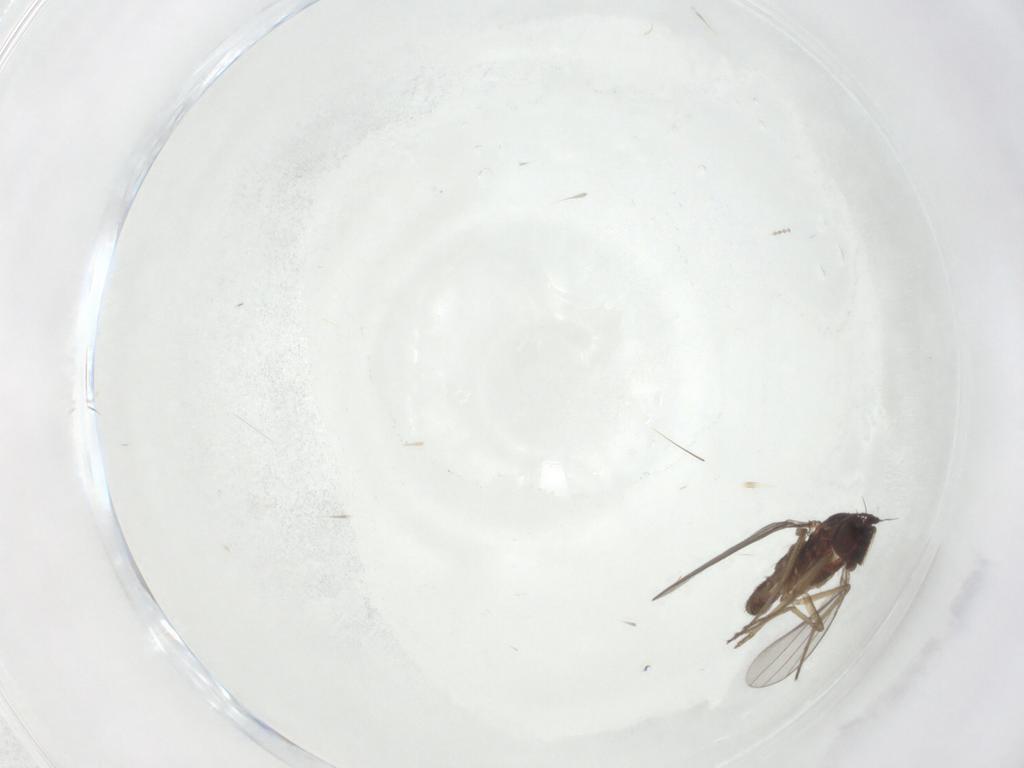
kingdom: Animalia
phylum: Arthropoda
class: Insecta
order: Diptera
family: Dolichopodidae
